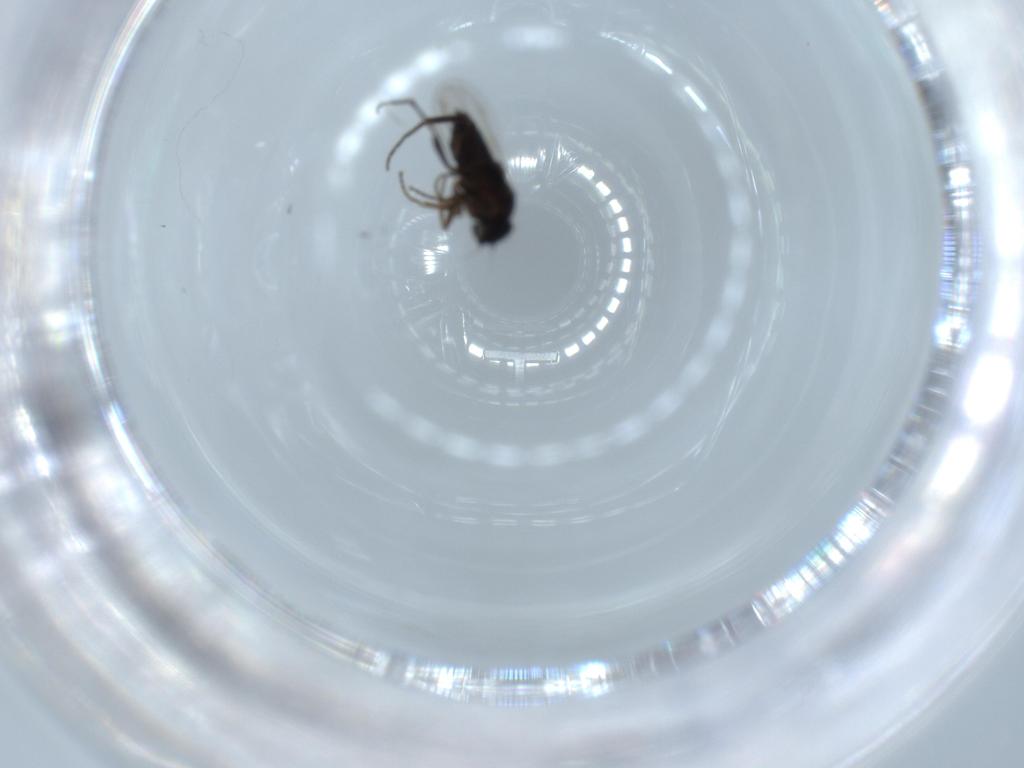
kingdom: Animalia
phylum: Arthropoda
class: Insecta
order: Diptera
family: Phoridae
